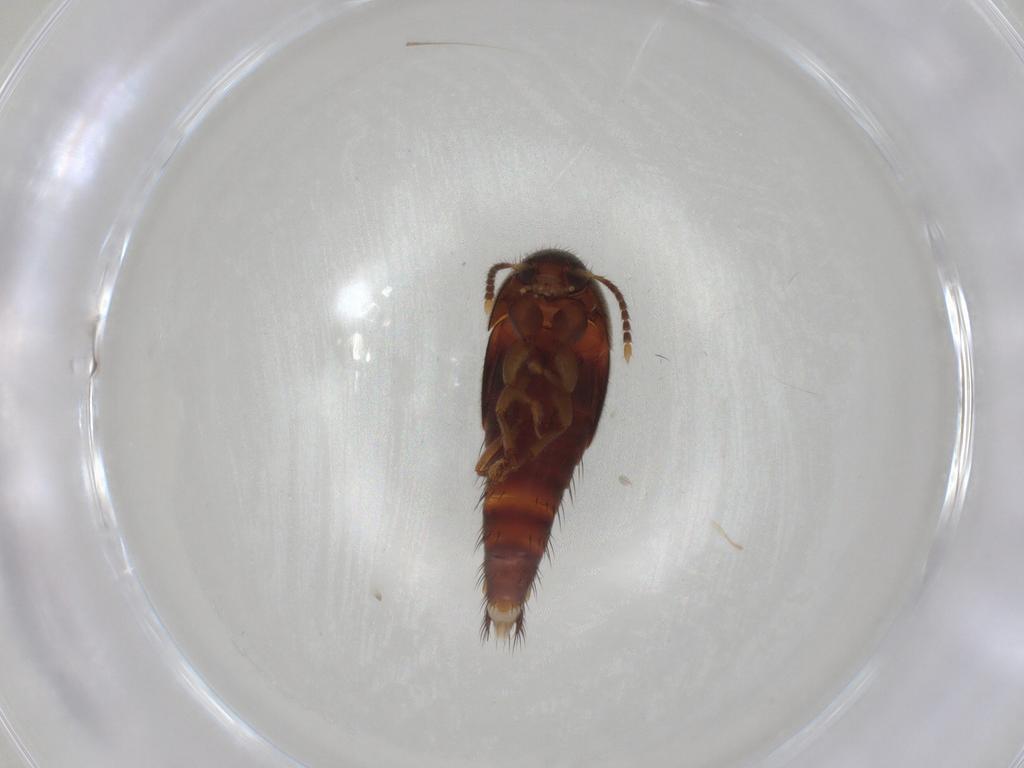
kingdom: Animalia
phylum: Arthropoda
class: Insecta
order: Coleoptera
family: Staphylinidae
